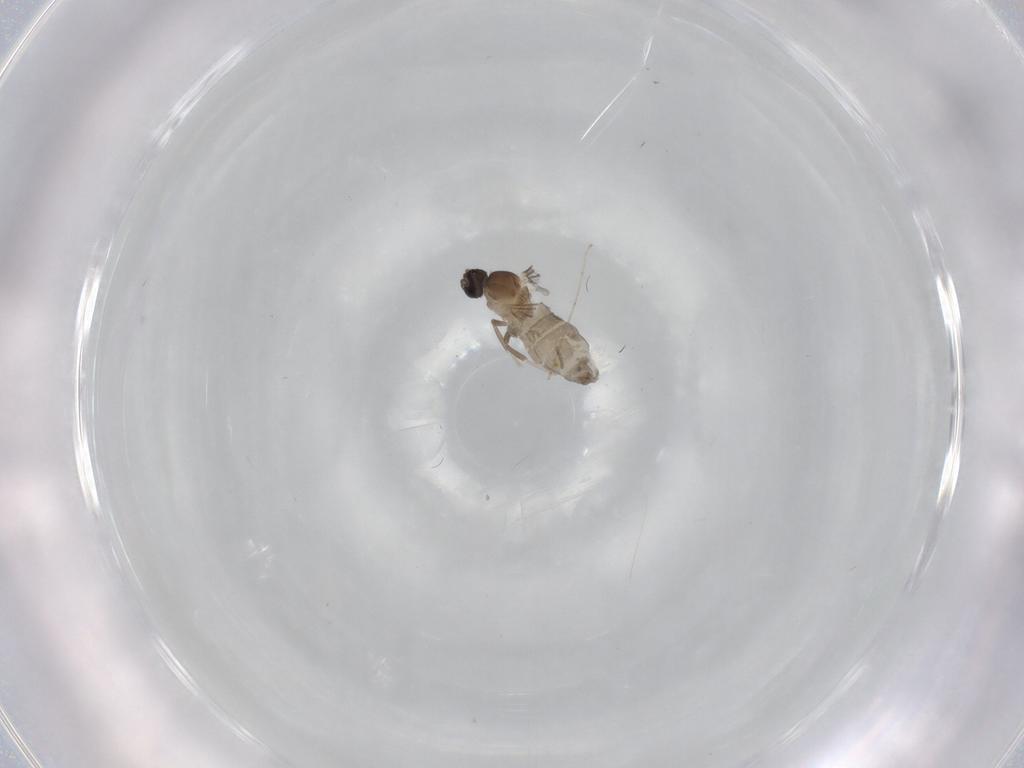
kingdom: Animalia
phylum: Arthropoda
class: Insecta
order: Diptera
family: Cecidomyiidae
